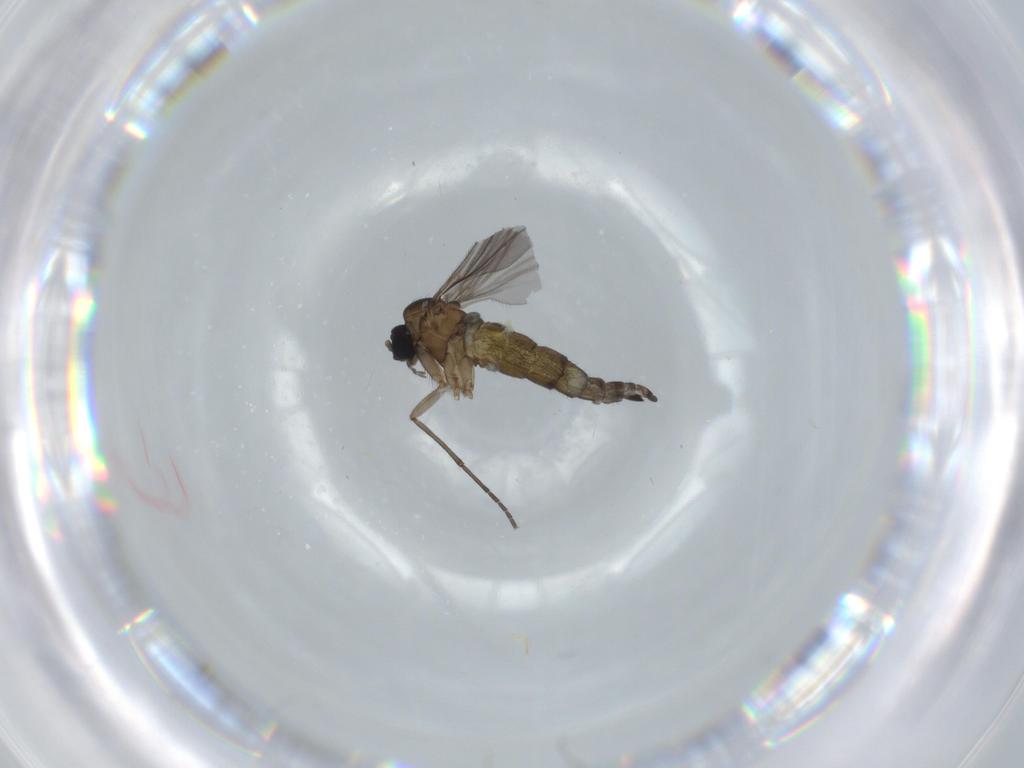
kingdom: Animalia
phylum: Arthropoda
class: Insecta
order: Diptera
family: Sciaridae
